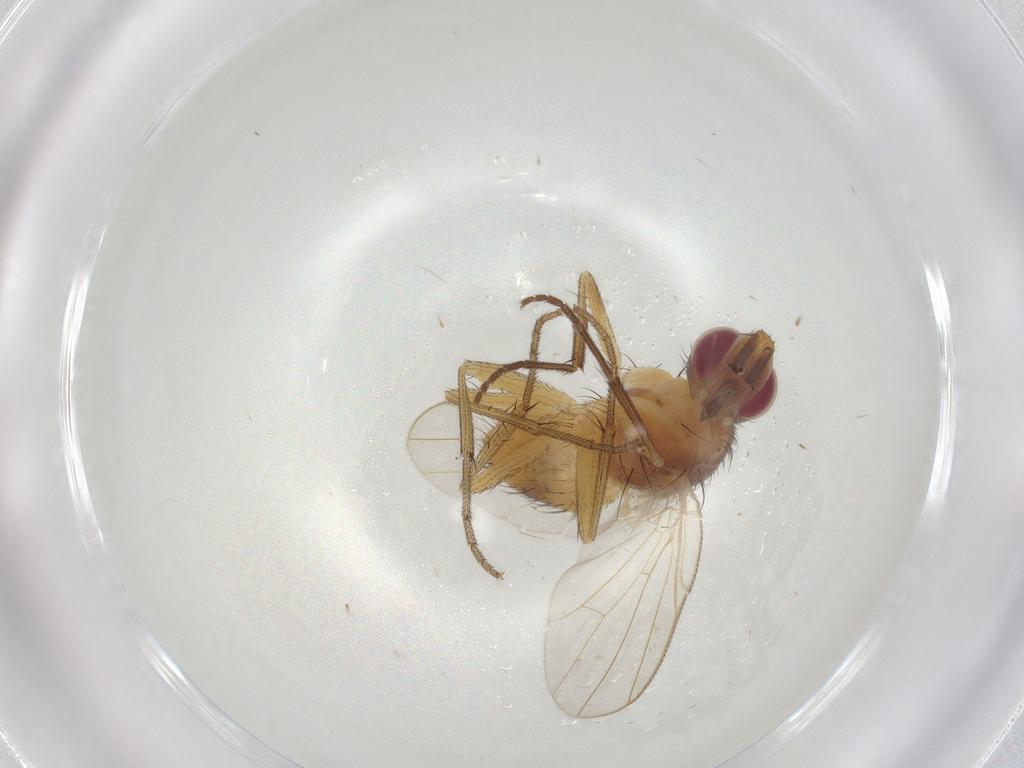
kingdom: Animalia
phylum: Arthropoda
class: Insecta
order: Diptera
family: Muscidae
